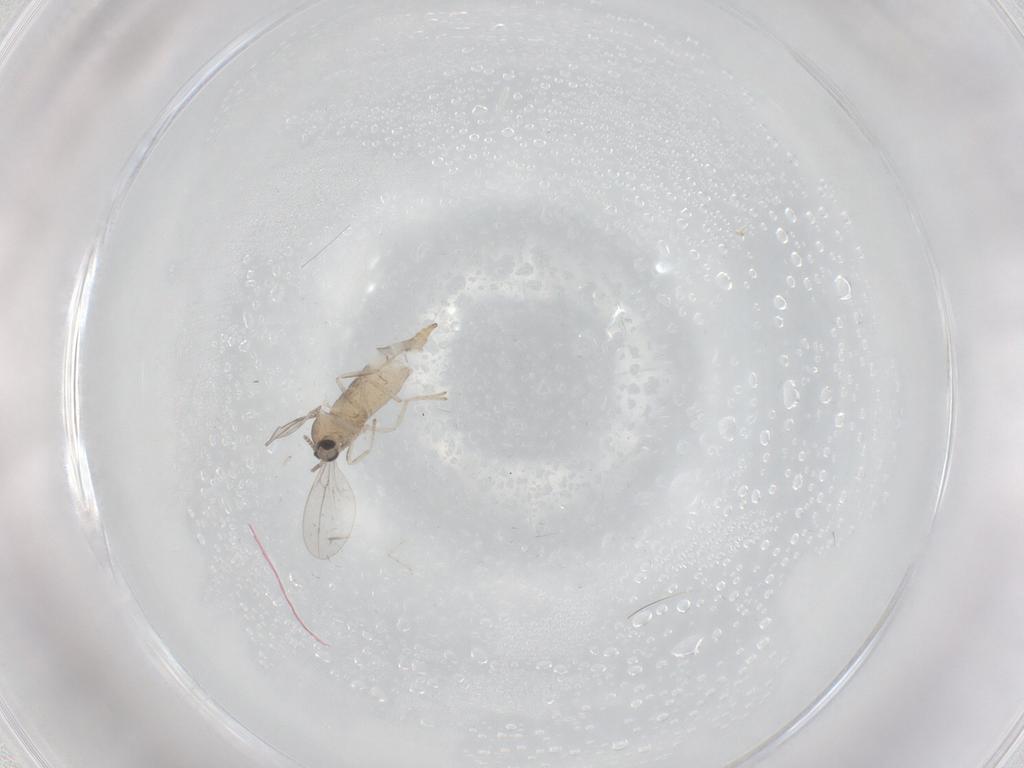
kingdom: Animalia
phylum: Arthropoda
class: Insecta
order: Diptera
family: Cecidomyiidae
